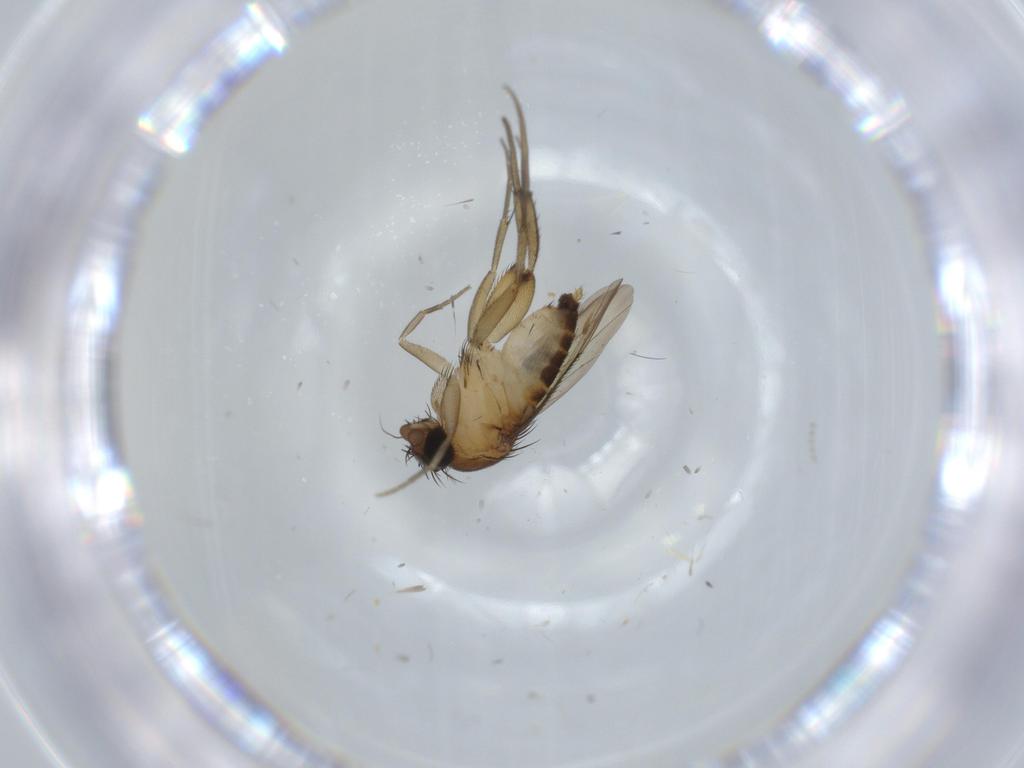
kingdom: Animalia
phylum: Arthropoda
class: Insecta
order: Diptera
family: Phoridae
